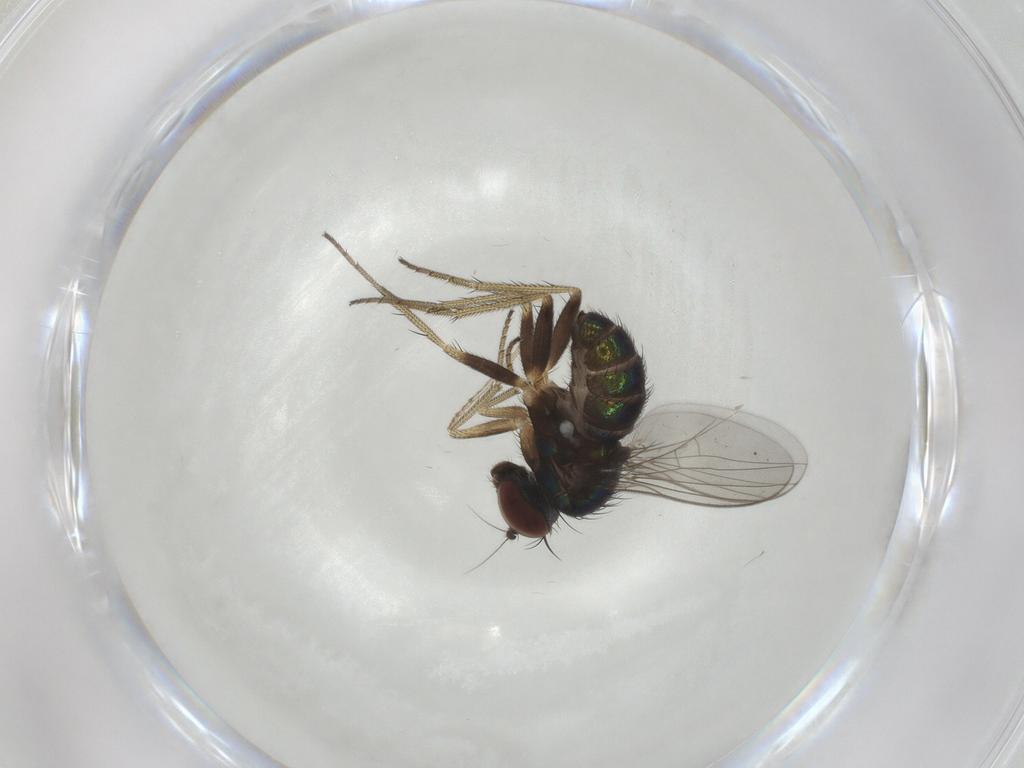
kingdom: Animalia
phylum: Arthropoda
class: Insecta
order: Diptera
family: Dolichopodidae
